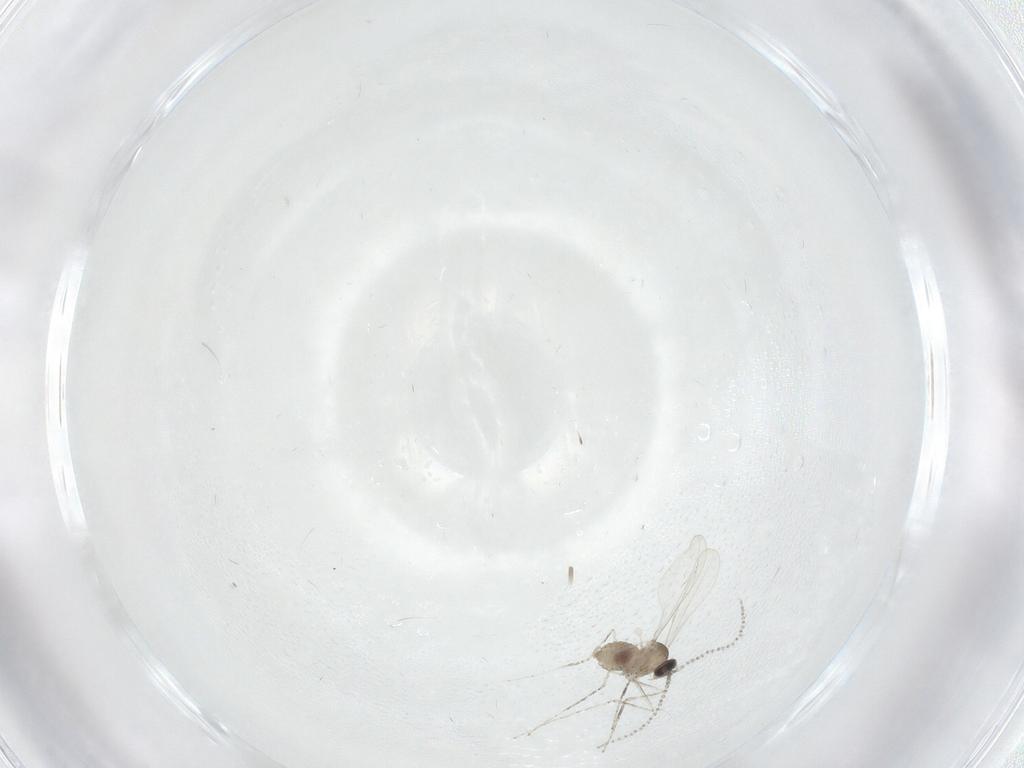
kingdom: Animalia
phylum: Arthropoda
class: Insecta
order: Diptera
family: Cecidomyiidae
